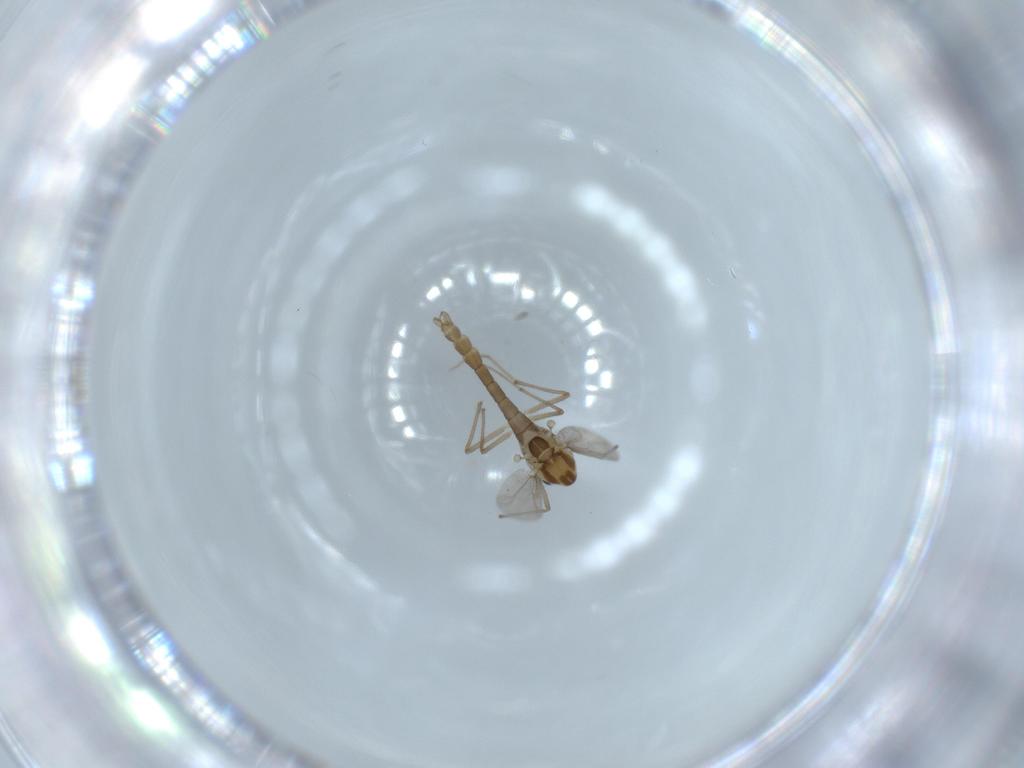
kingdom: Animalia
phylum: Arthropoda
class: Insecta
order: Diptera
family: Chironomidae
